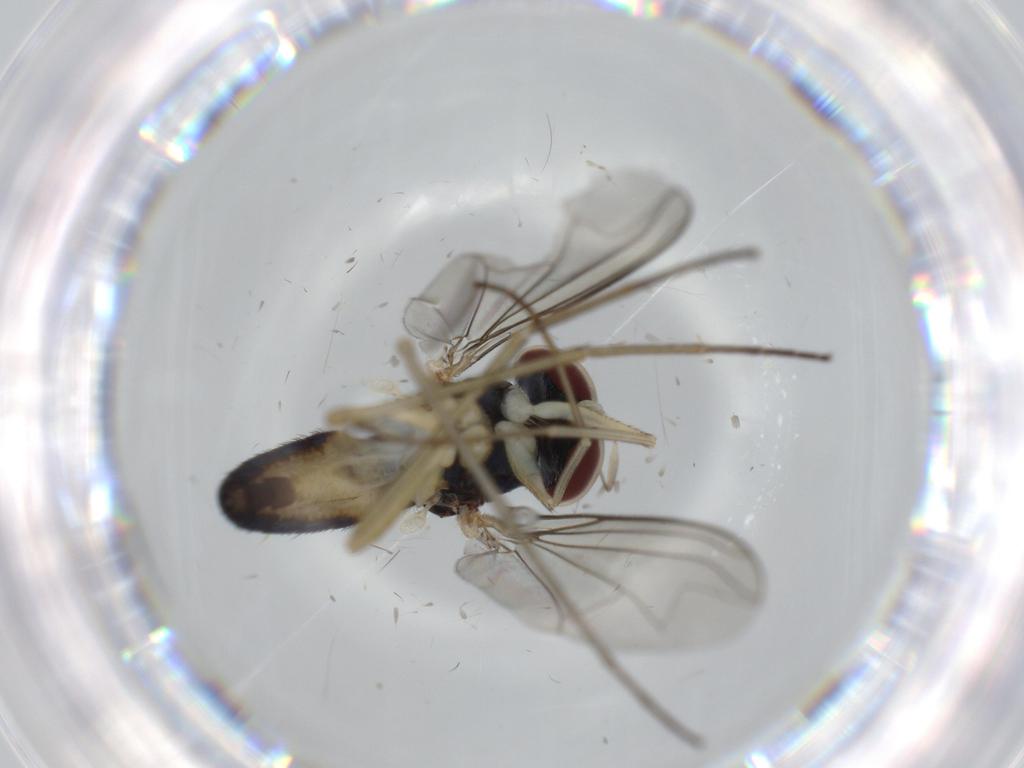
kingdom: Animalia
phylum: Arthropoda
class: Insecta
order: Diptera
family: Dolichopodidae
